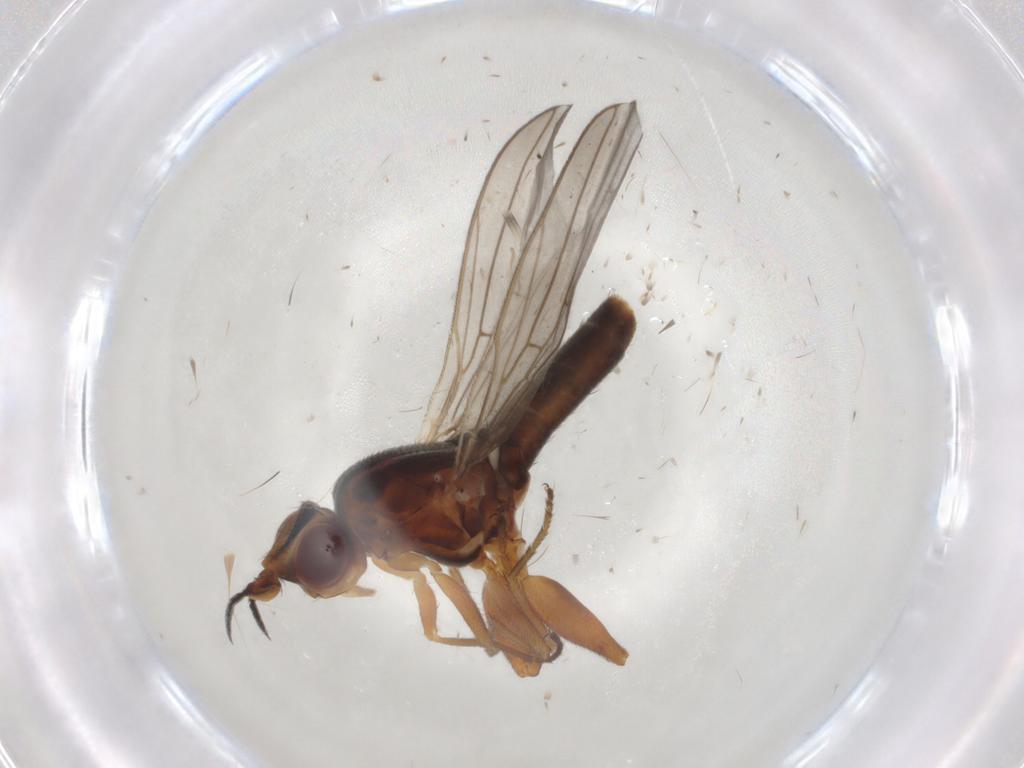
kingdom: Animalia
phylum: Arthropoda
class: Insecta
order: Diptera
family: Chloropidae
